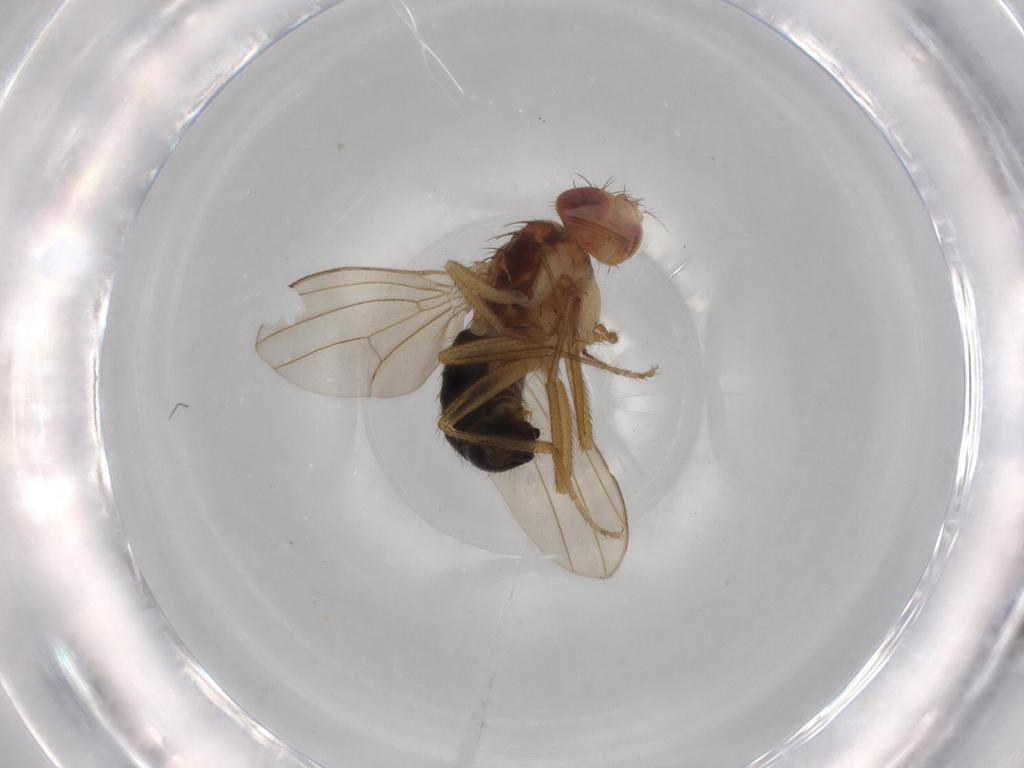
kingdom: Animalia
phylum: Arthropoda
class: Insecta
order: Diptera
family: Drosophilidae
